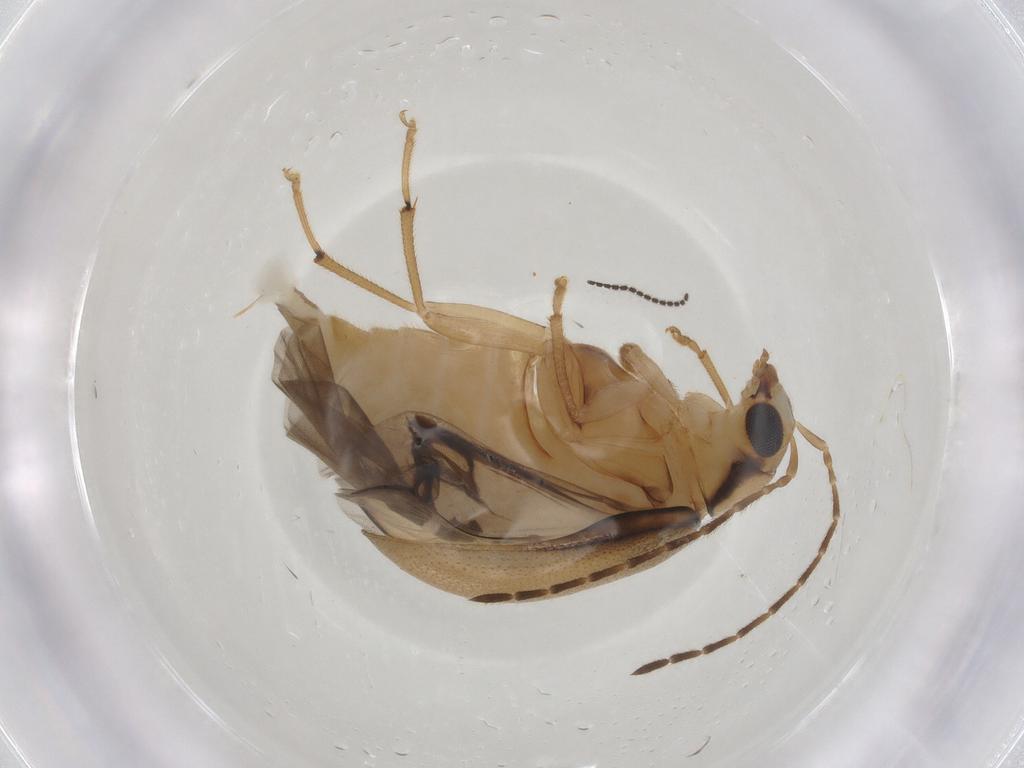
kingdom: Animalia
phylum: Arthropoda
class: Insecta
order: Coleoptera
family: Chrysomelidae
